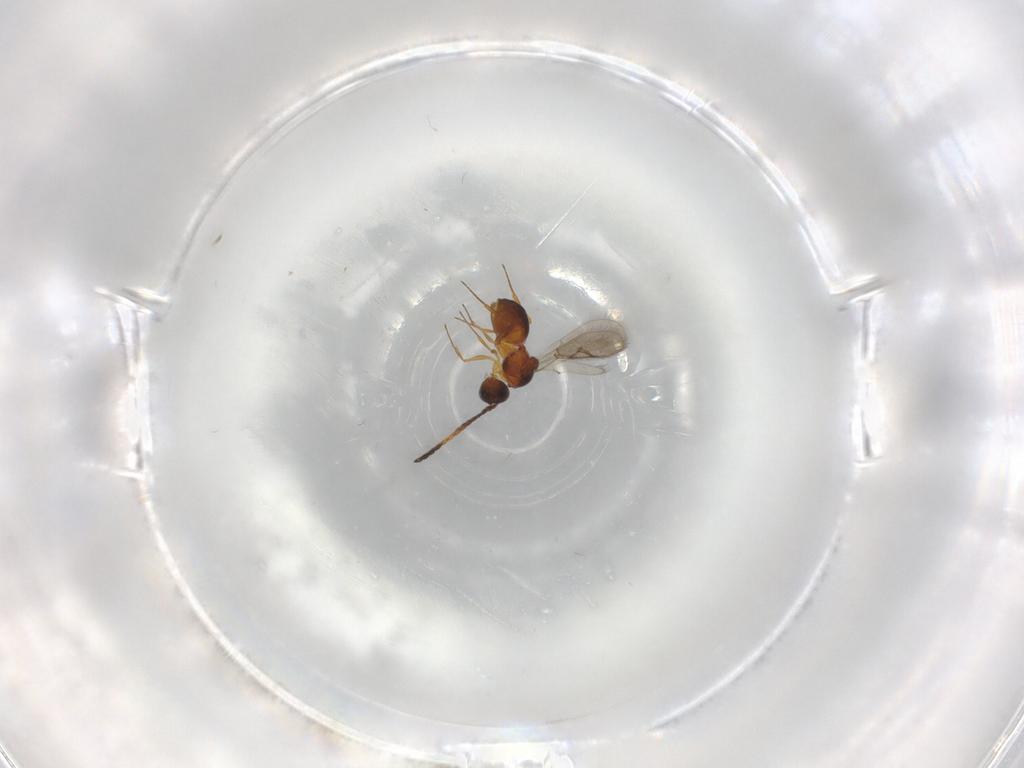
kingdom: Animalia
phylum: Arthropoda
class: Insecta
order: Hymenoptera
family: Figitidae
